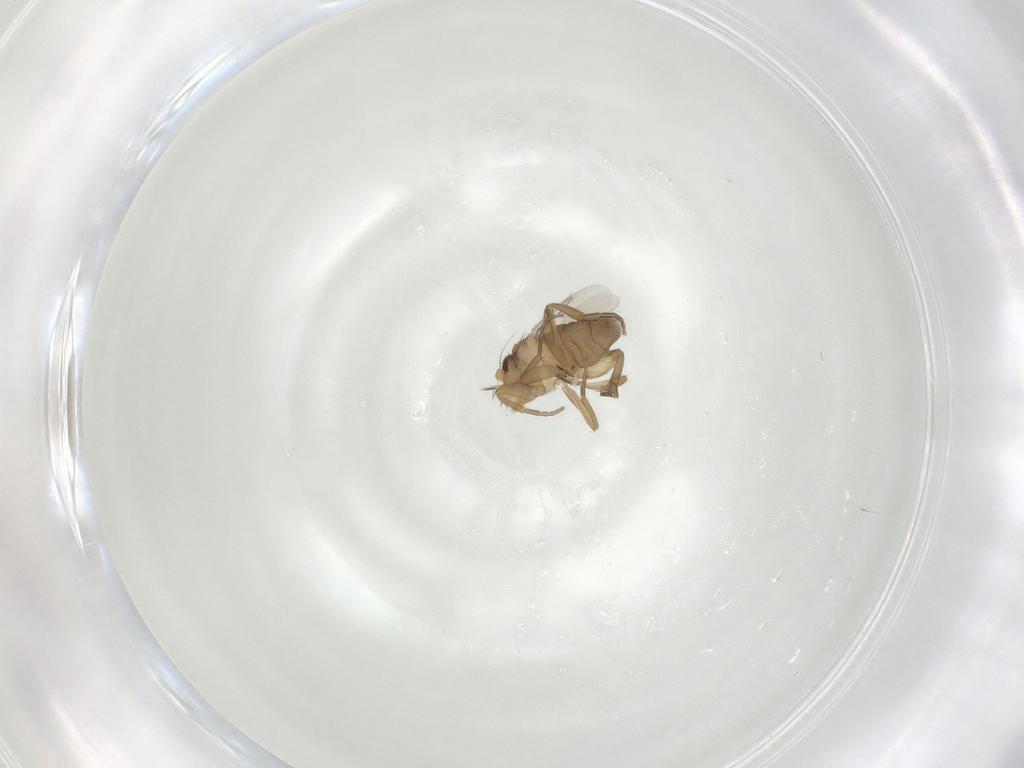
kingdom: Animalia
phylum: Arthropoda
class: Insecta
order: Diptera
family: Phoridae
